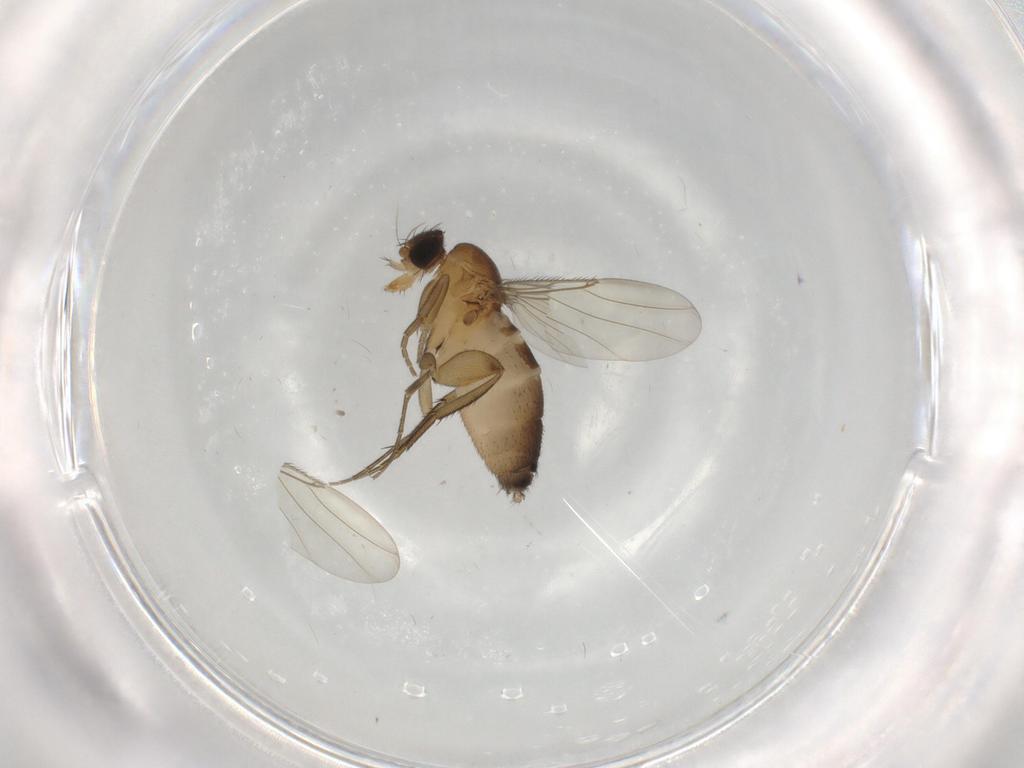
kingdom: Animalia
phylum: Arthropoda
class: Insecta
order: Diptera
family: Phoridae
